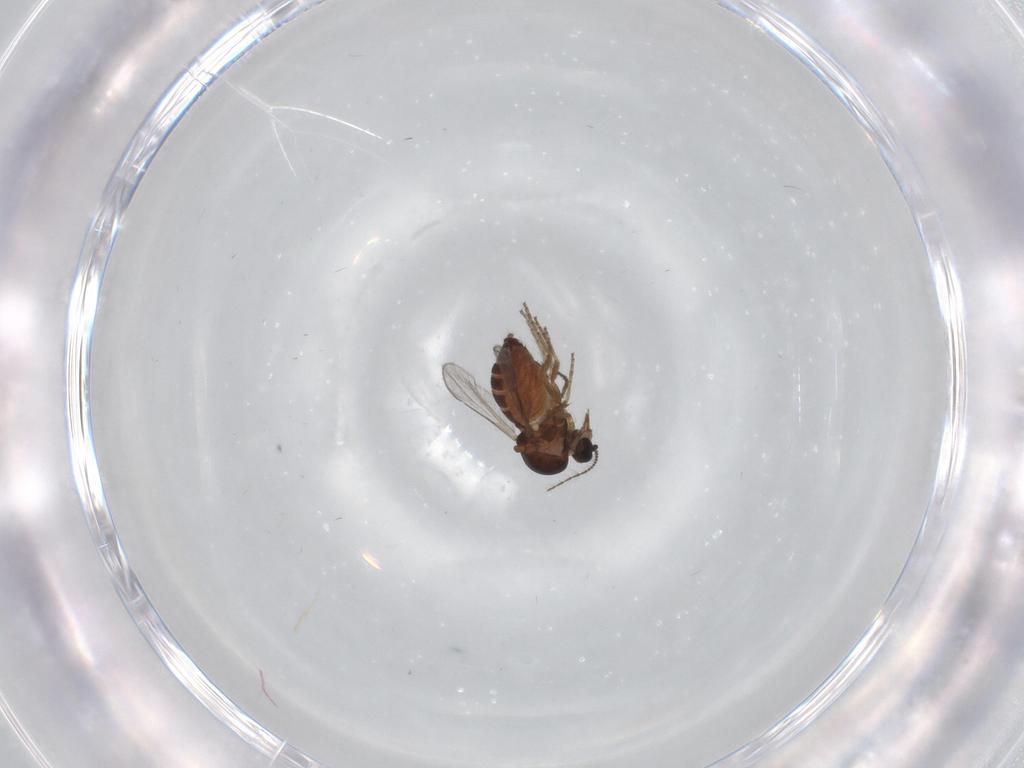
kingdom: Animalia
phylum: Arthropoda
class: Insecta
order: Diptera
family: Ceratopogonidae
